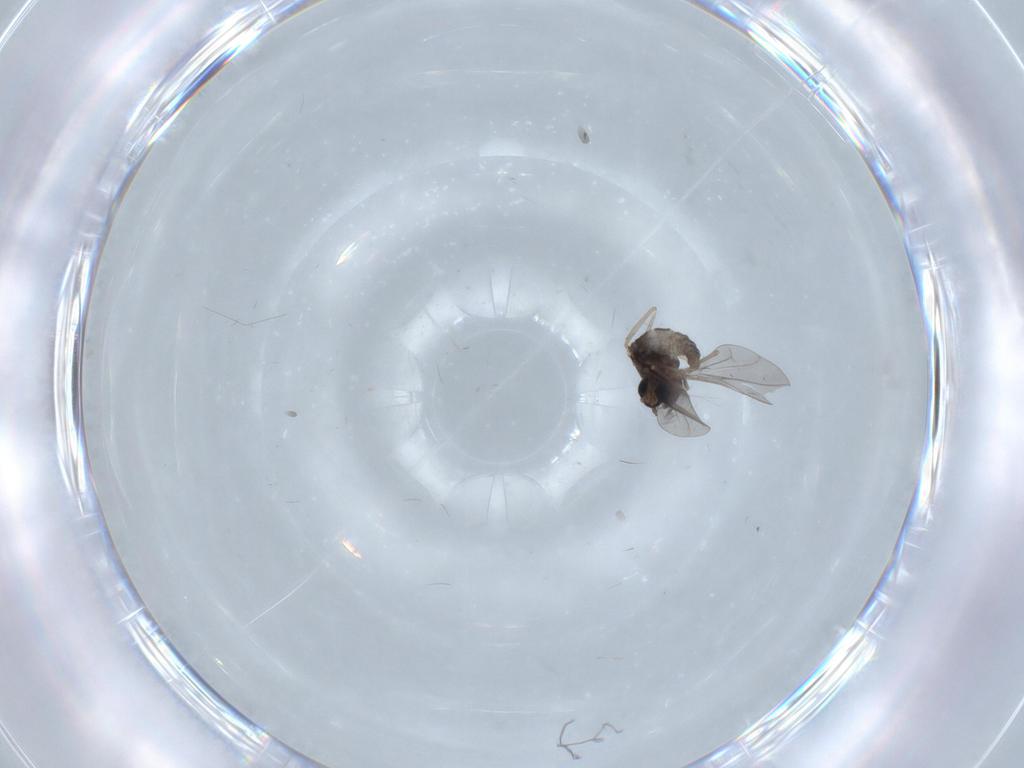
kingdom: Animalia
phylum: Arthropoda
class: Insecta
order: Diptera
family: Cecidomyiidae
